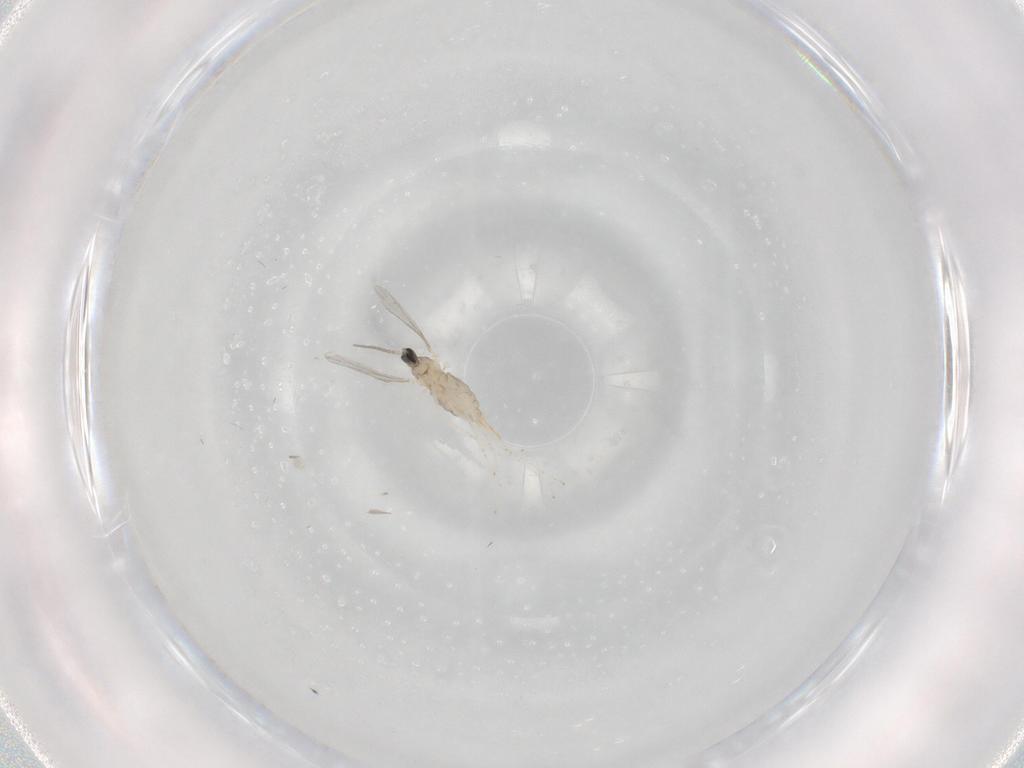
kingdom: Animalia
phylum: Arthropoda
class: Insecta
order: Diptera
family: Cecidomyiidae
